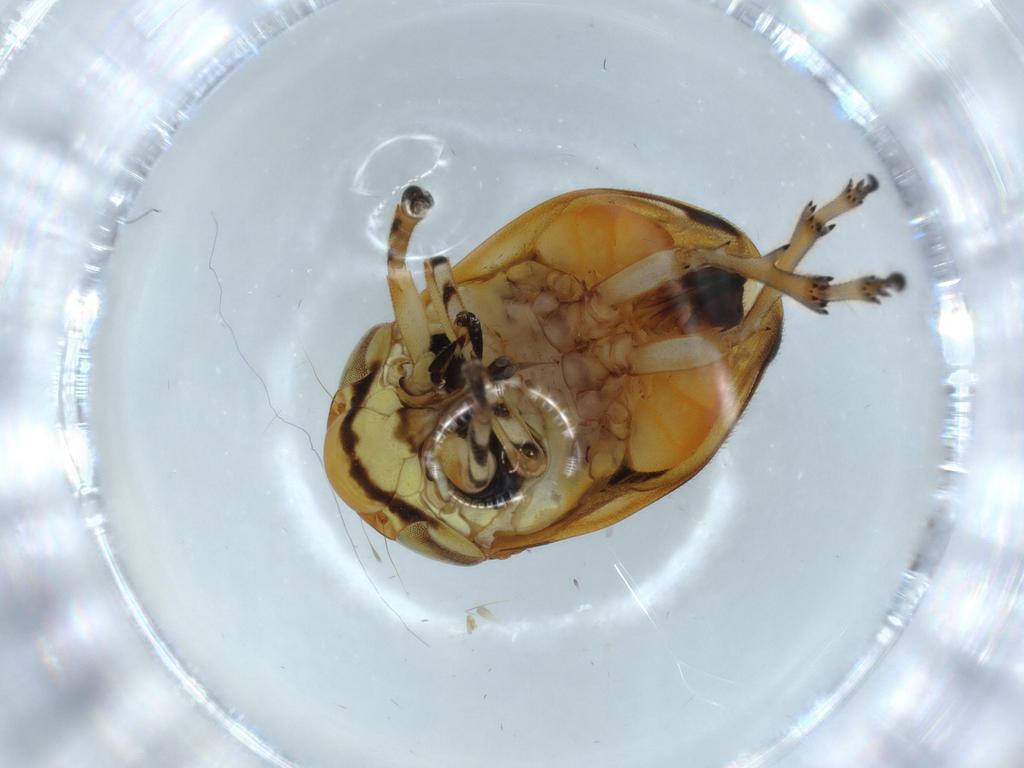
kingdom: Animalia
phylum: Arthropoda
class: Insecta
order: Hemiptera
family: Clastopteridae
